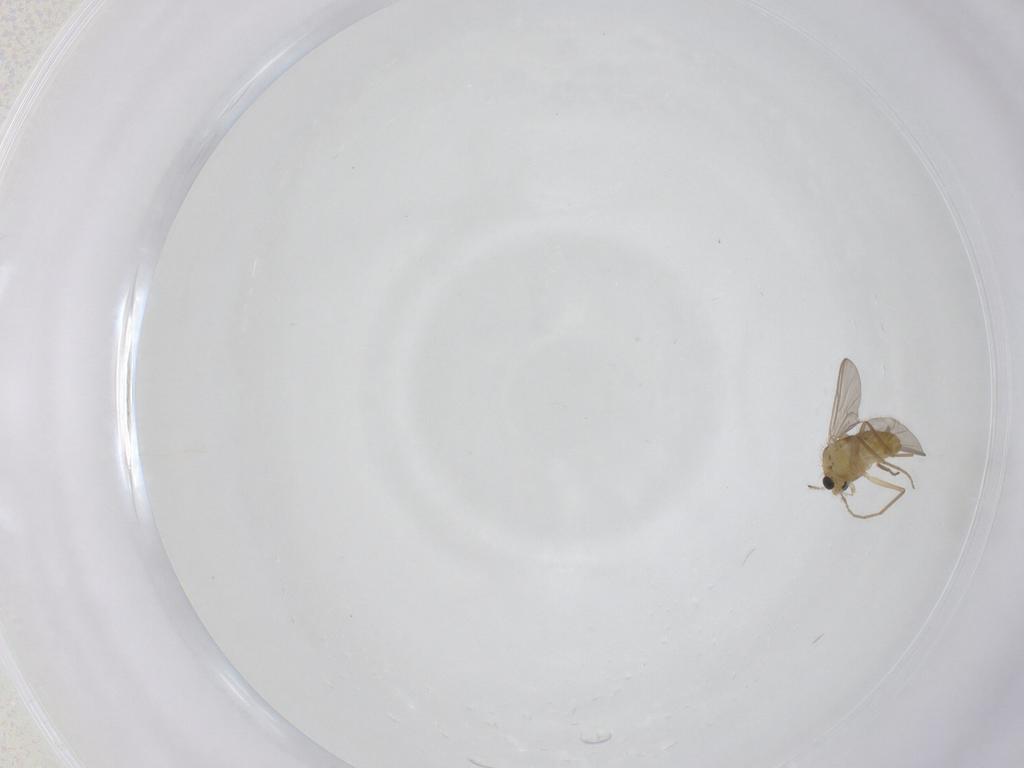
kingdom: Animalia
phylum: Arthropoda
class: Insecta
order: Diptera
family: Chironomidae
